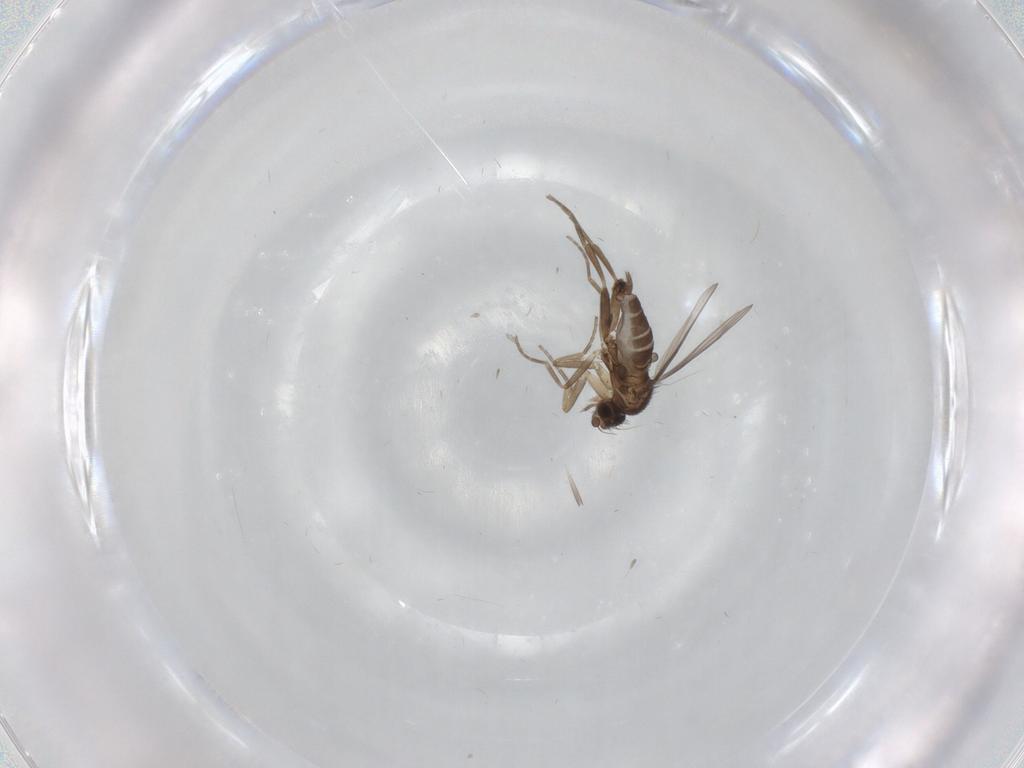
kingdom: Animalia
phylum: Arthropoda
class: Insecta
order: Diptera
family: Phoridae
